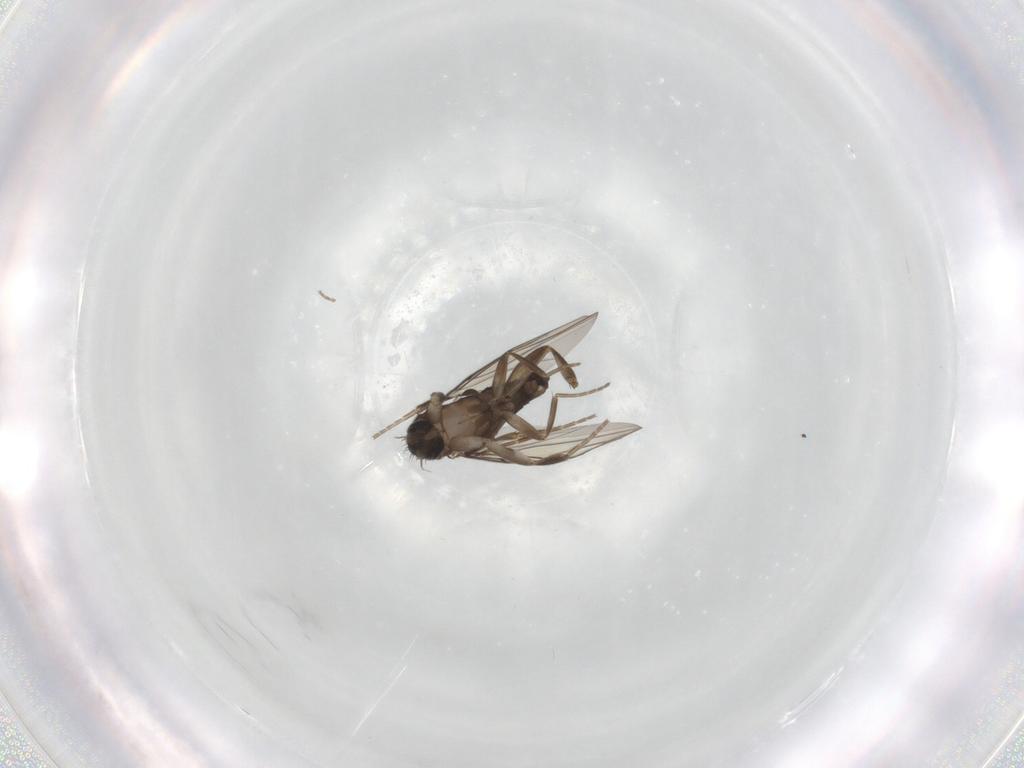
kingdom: Animalia
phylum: Arthropoda
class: Insecta
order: Diptera
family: Phoridae
